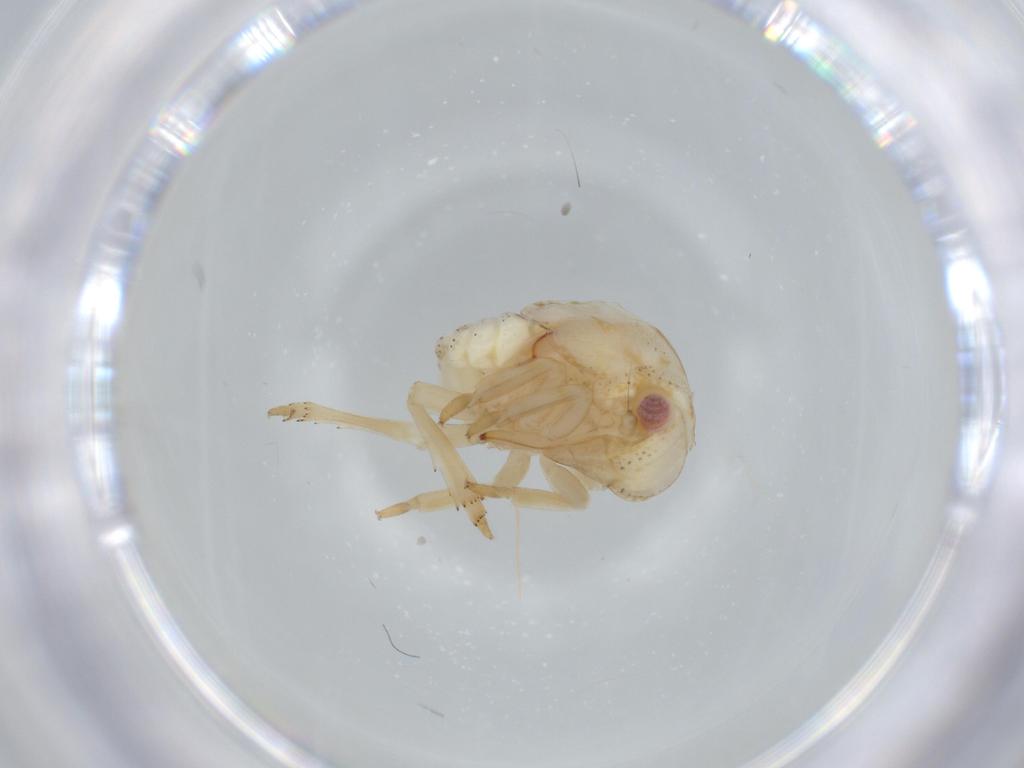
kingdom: Animalia
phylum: Arthropoda
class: Insecta
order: Hemiptera
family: Acanaloniidae
